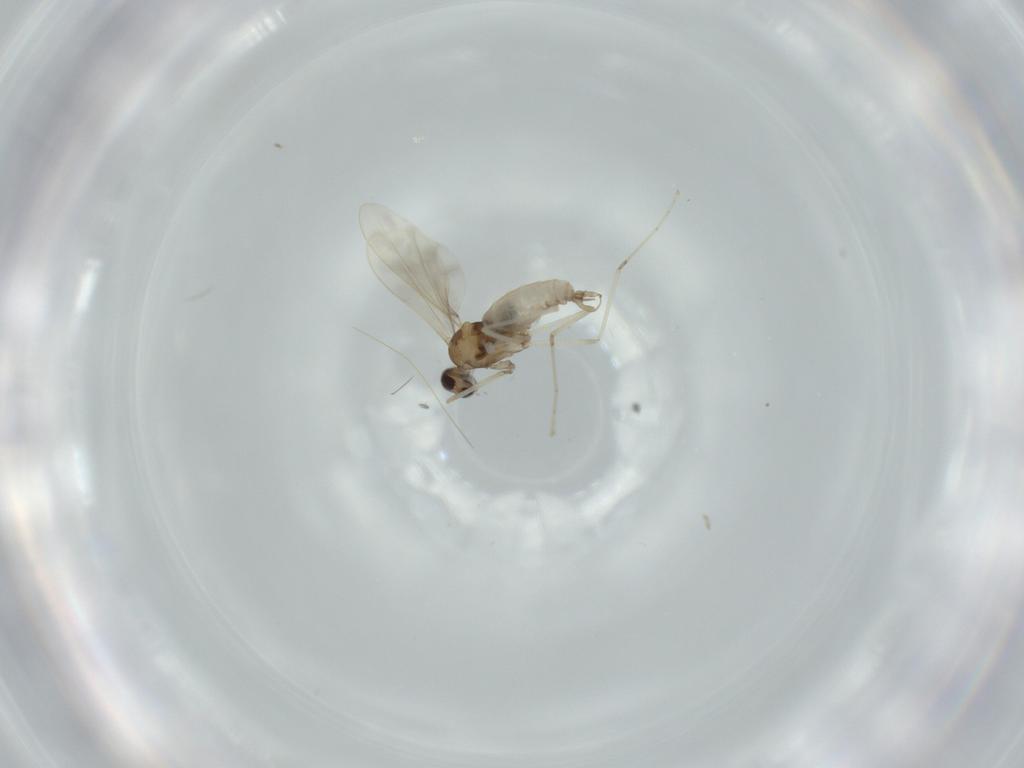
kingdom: Animalia
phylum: Arthropoda
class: Insecta
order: Diptera
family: Cecidomyiidae
